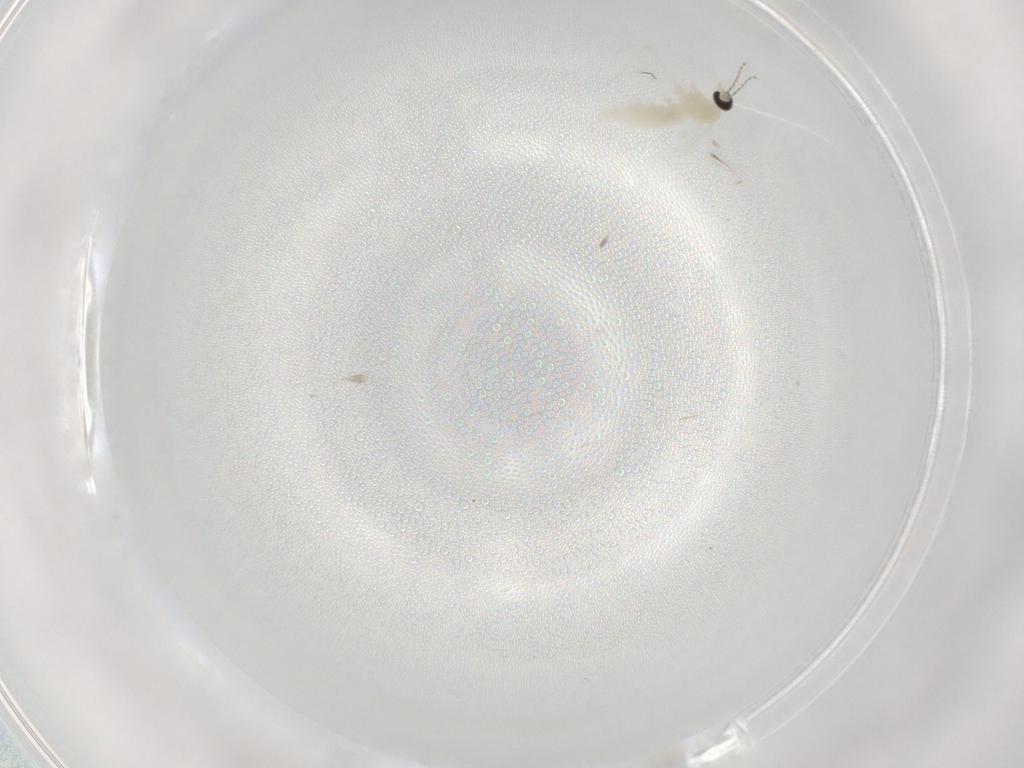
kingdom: Animalia
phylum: Arthropoda
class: Insecta
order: Diptera
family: Cecidomyiidae
